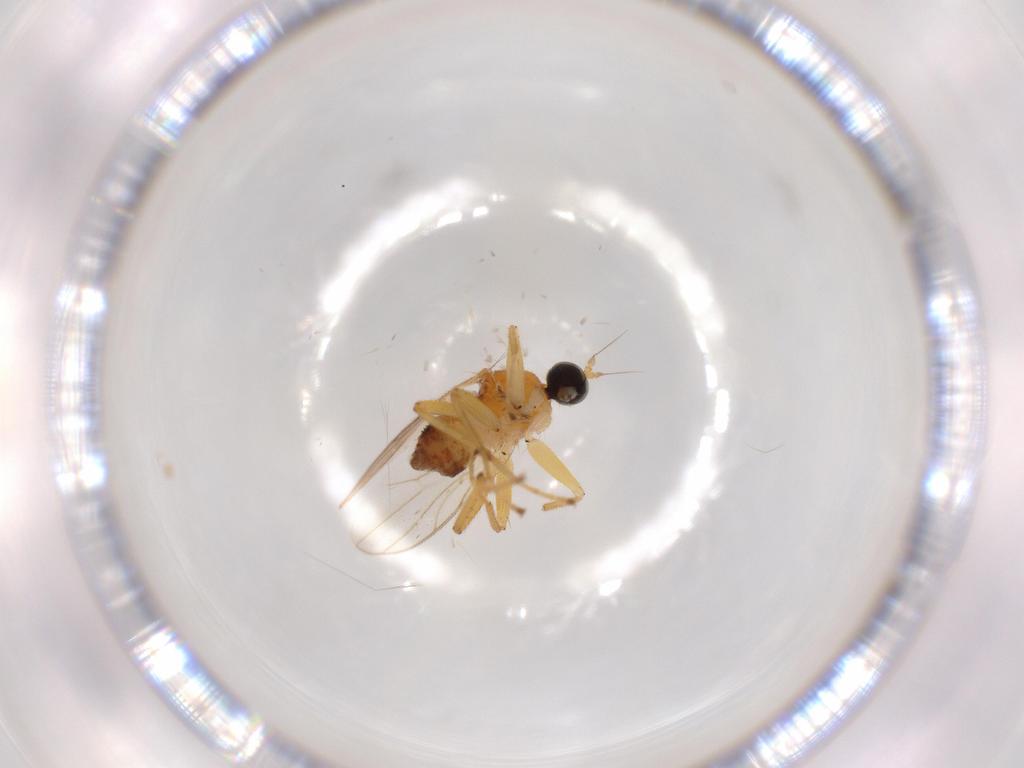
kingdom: Animalia
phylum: Arthropoda
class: Insecta
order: Diptera
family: Hybotidae
